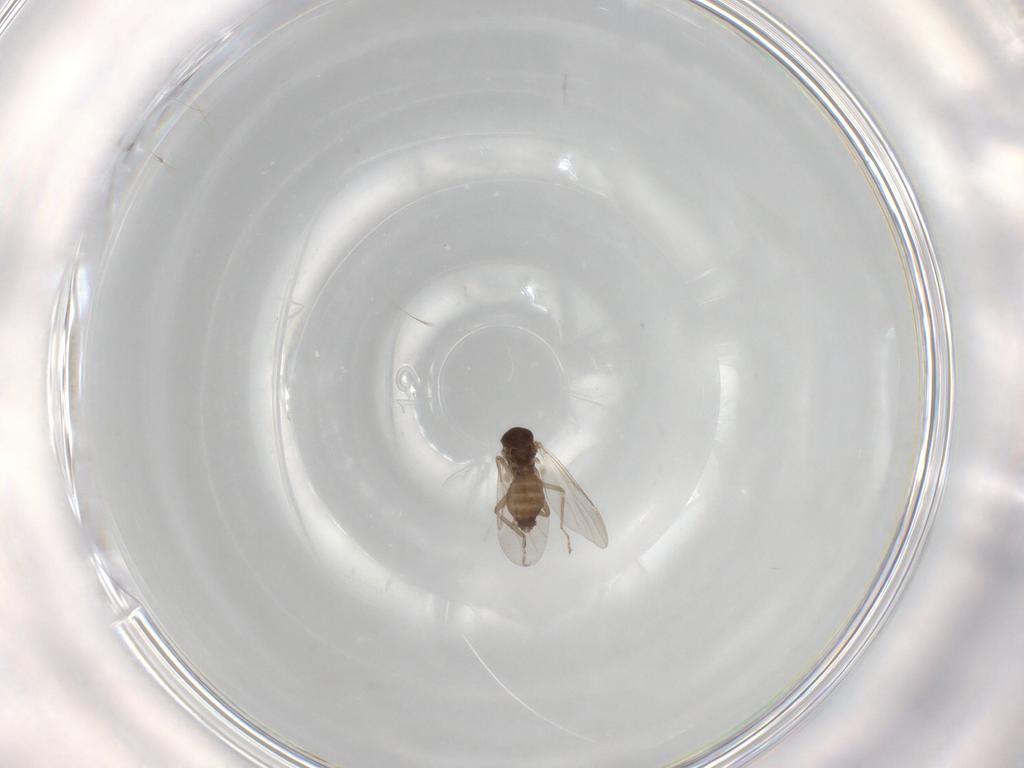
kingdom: Animalia
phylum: Arthropoda
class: Insecta
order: Diptera
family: Ceratopogonidae
